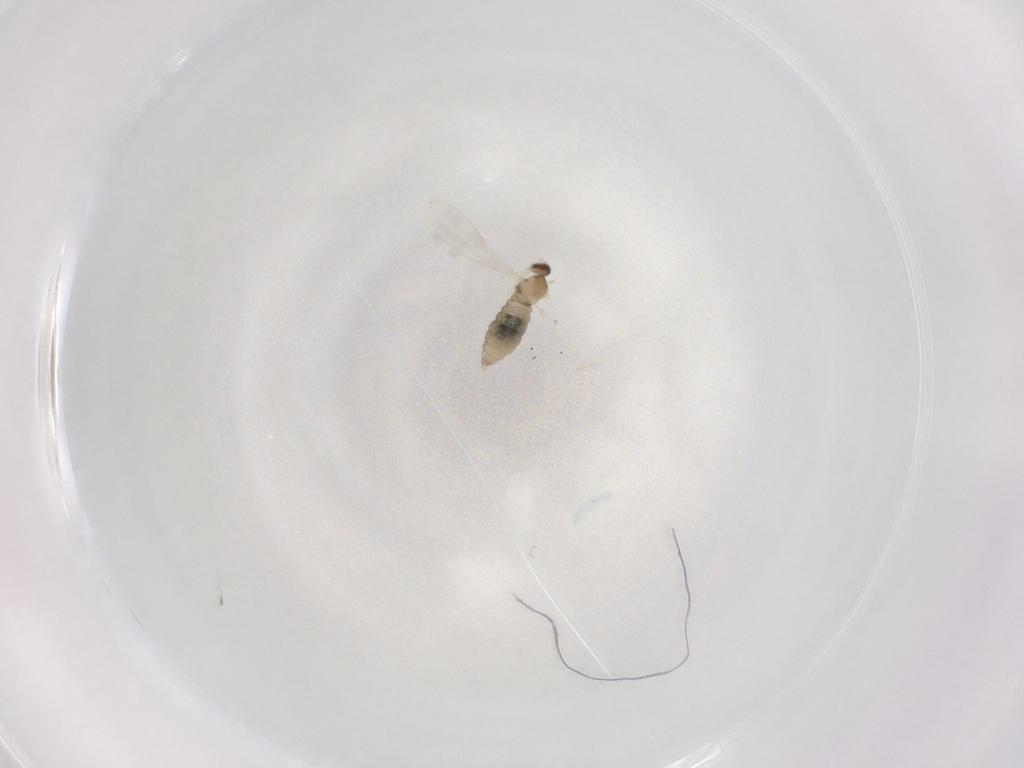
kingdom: Animalia
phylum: Arthropoda
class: Insecta
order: Diptera
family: Cecidomyiidae
